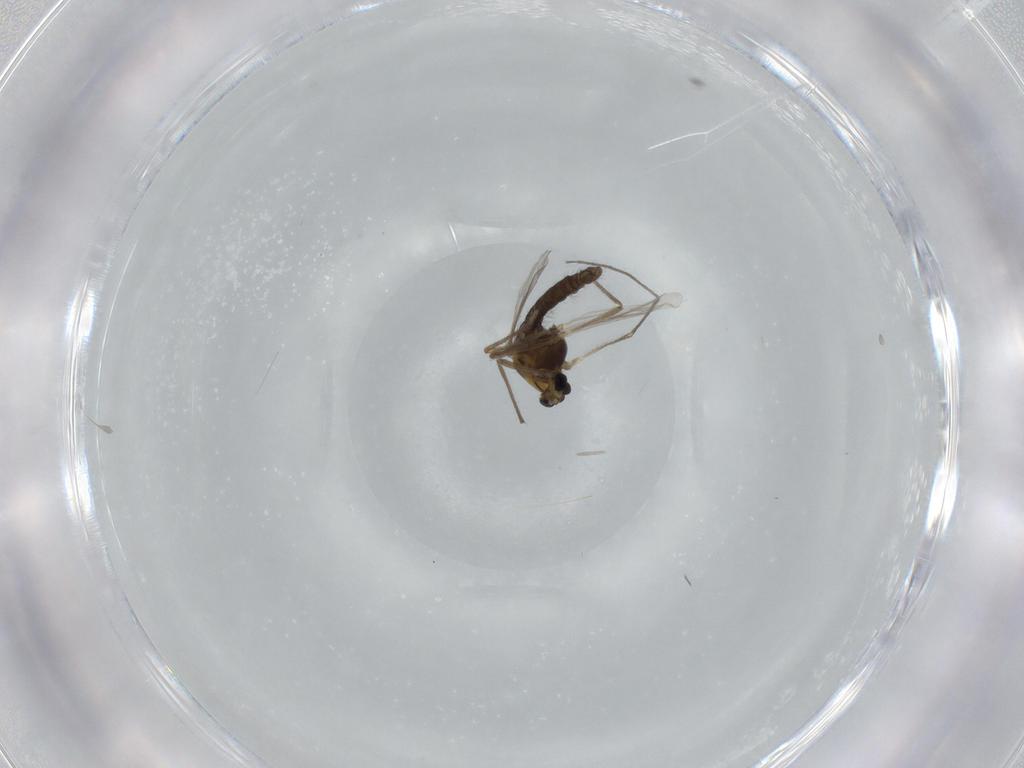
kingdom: Animalia
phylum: Arthropoda
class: Insecta
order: Diptera
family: Chironomidae
